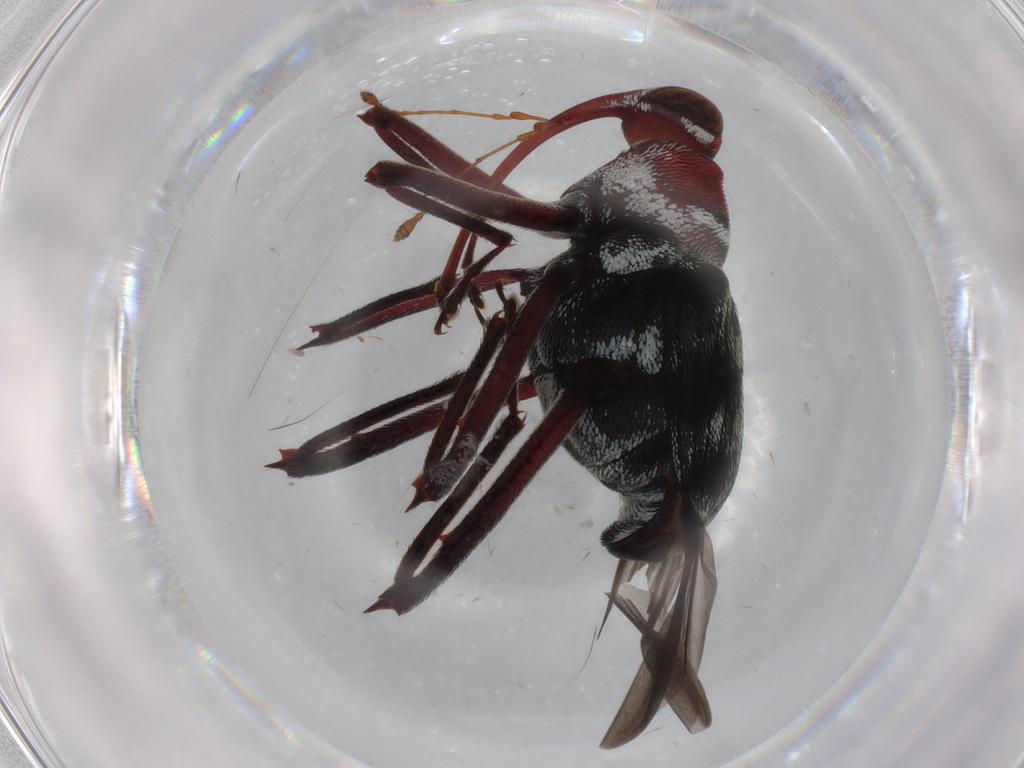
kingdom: Animalia
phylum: Arthropoda
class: Insecta
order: Coleoptera
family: Curculionidae
